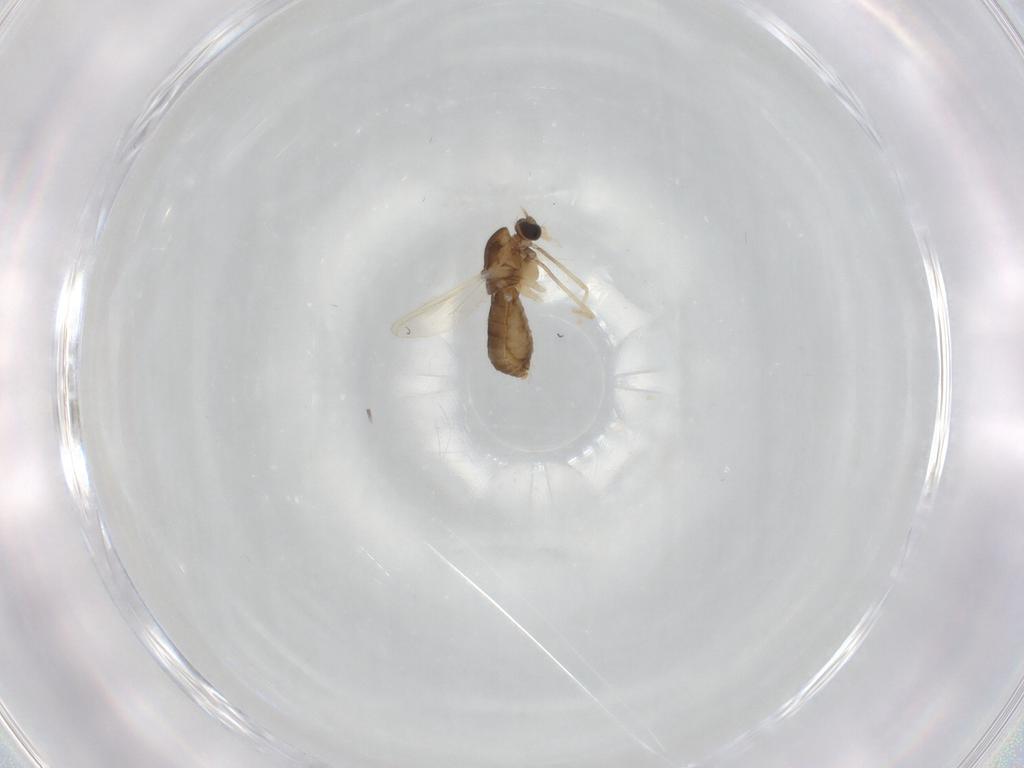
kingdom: Animalia
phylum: Arthropoda
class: Insecta
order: Diptera
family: Chironomidae
